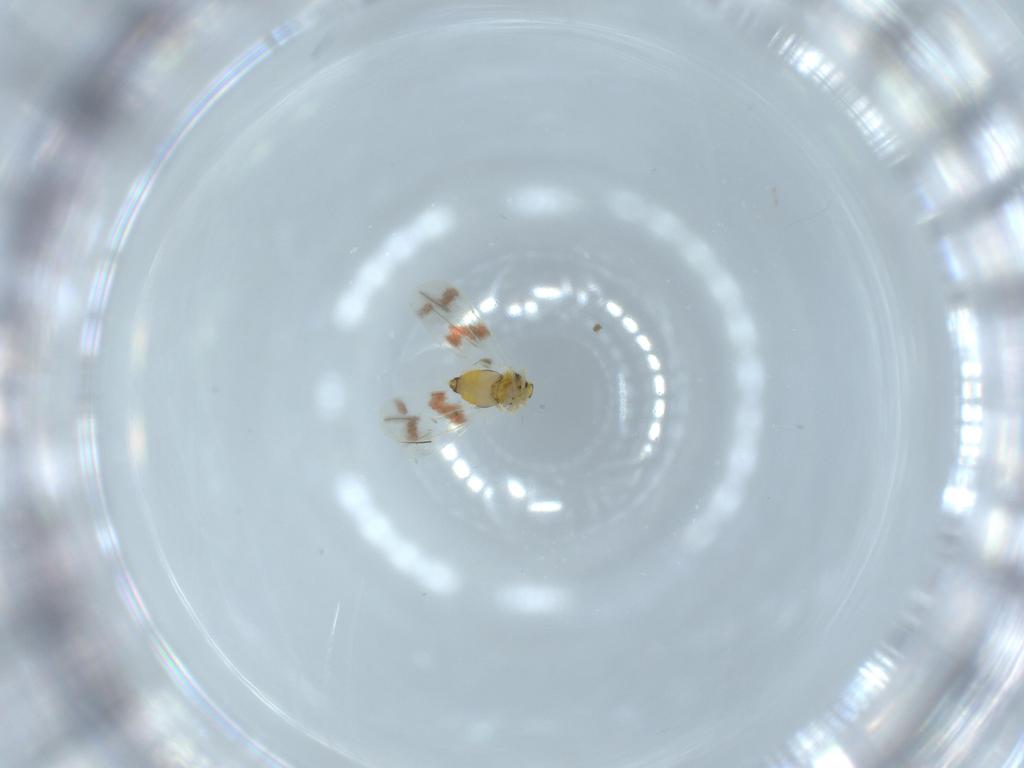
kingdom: Animalia
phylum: Arthropoda
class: Insecta
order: Hemiptera
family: Aleyrodidae
